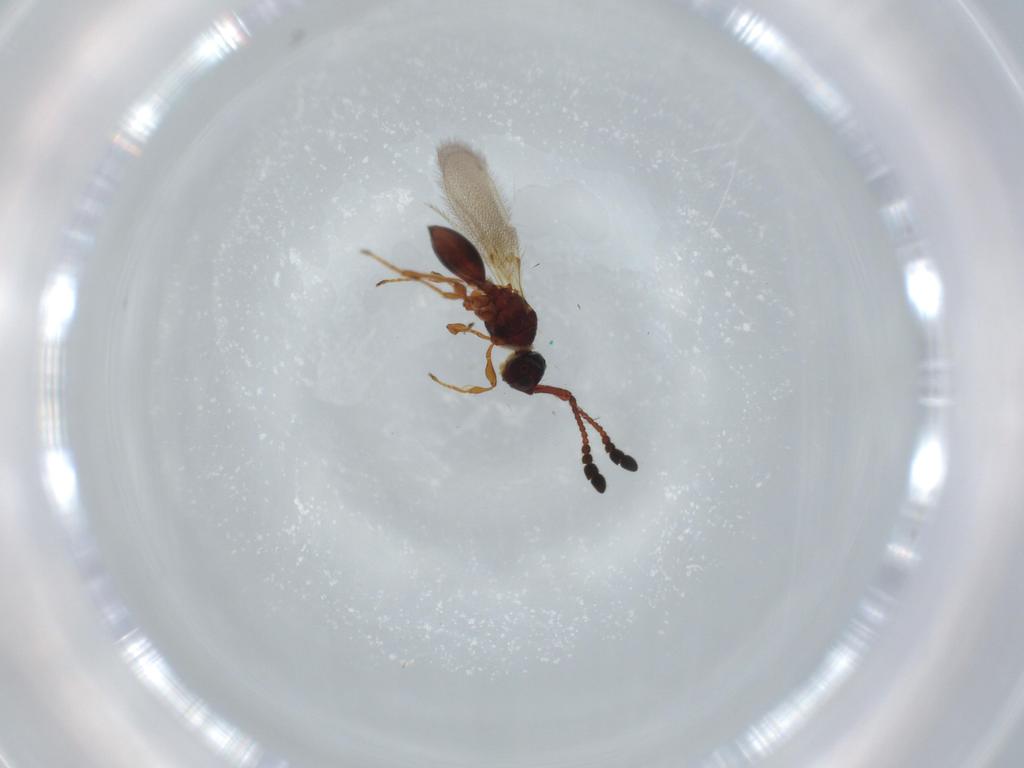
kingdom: Animalia
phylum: Arthropoda
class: Insecta
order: Hymenoptera
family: Diapriidae
